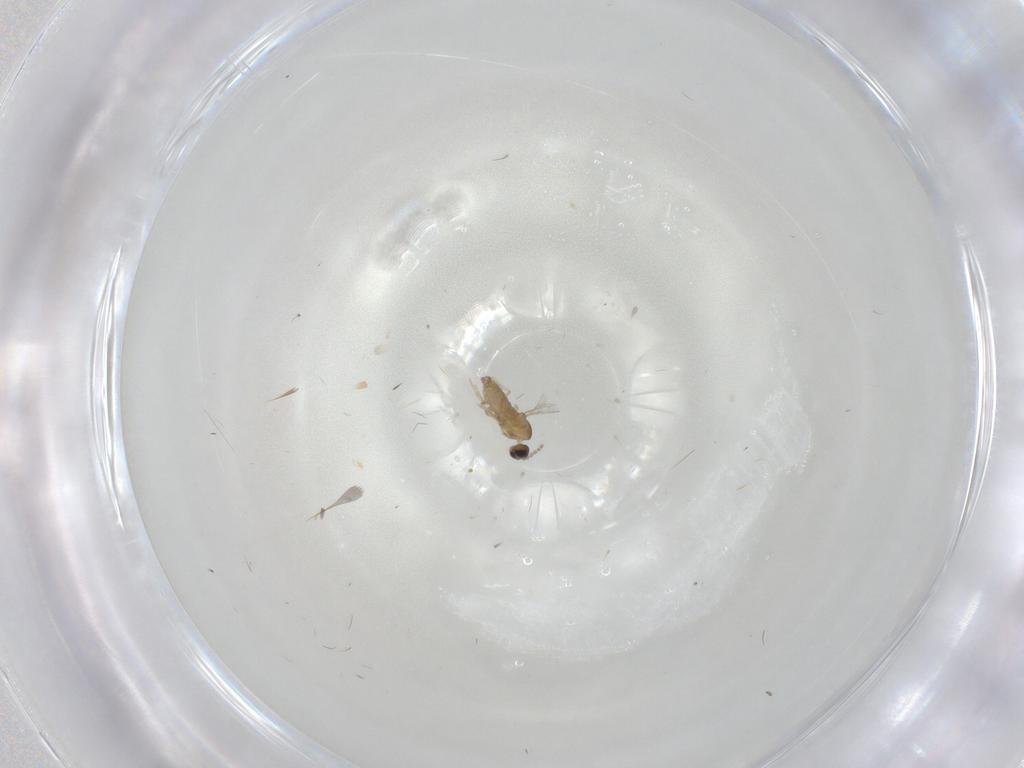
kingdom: Animalia
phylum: Arthropoda
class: Insecta
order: Diptera
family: Cecidomyiidae
